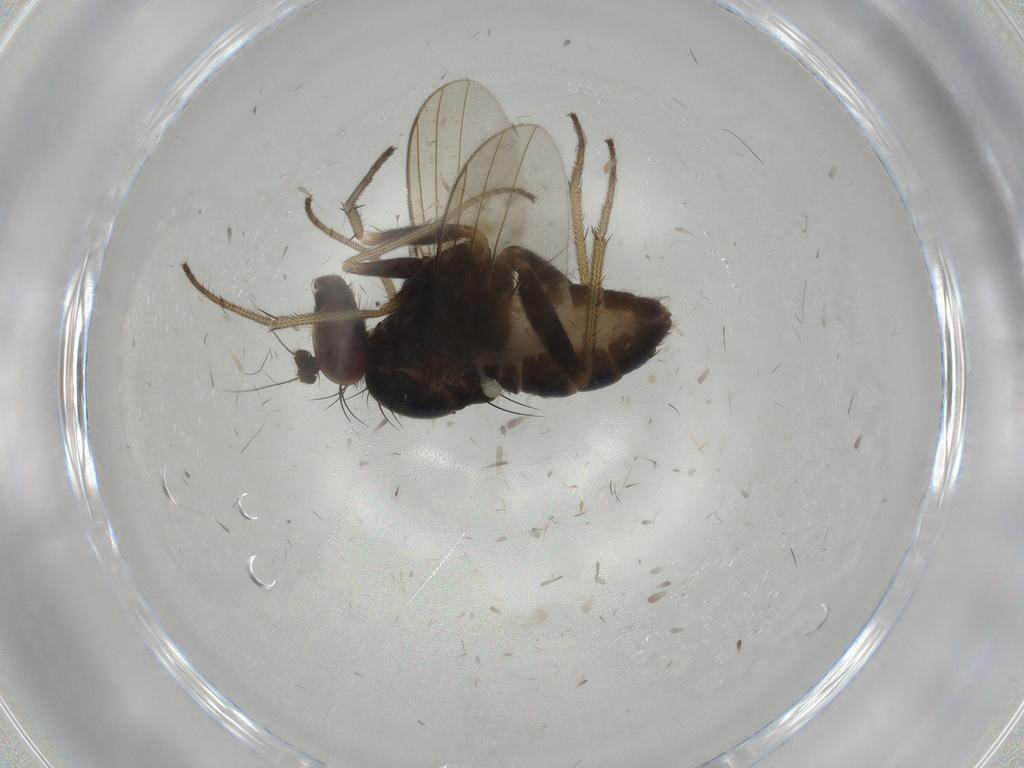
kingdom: Animalia
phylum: Arthropoda
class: Insecta
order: Diptera
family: Dolichopodidae
